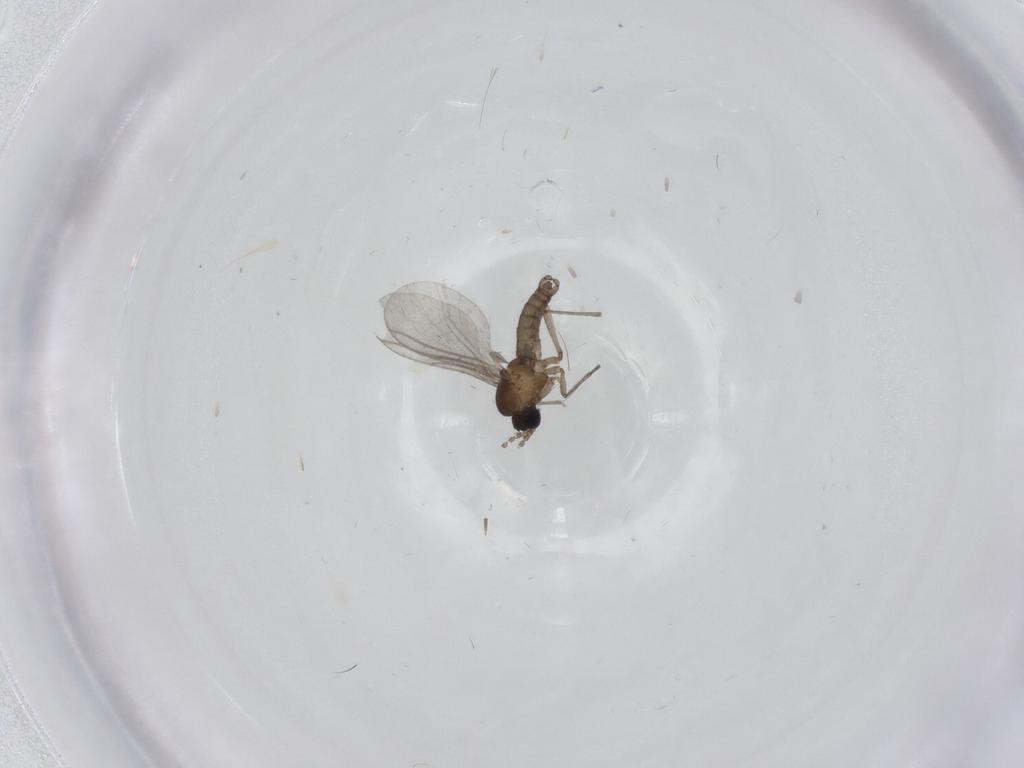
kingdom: Animalia
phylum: Arthropoda
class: Insecta
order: Diptera
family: Sciaridae
